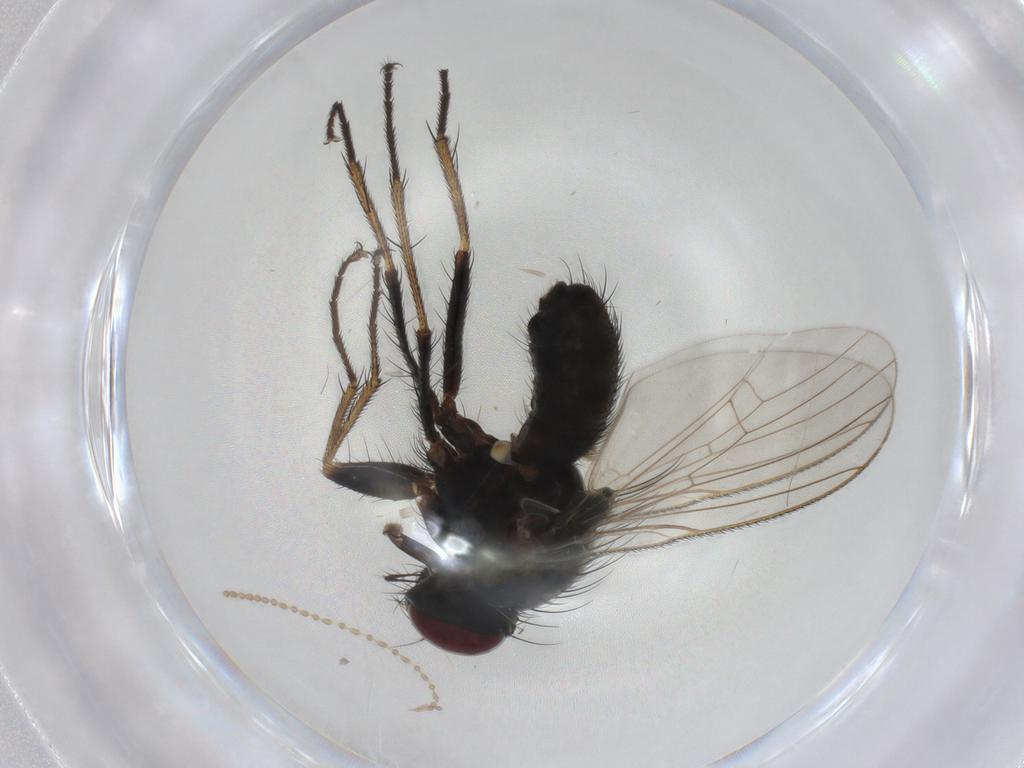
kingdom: Animalia
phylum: Arthropoda
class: Insecta
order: Diptera
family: Muscidae
